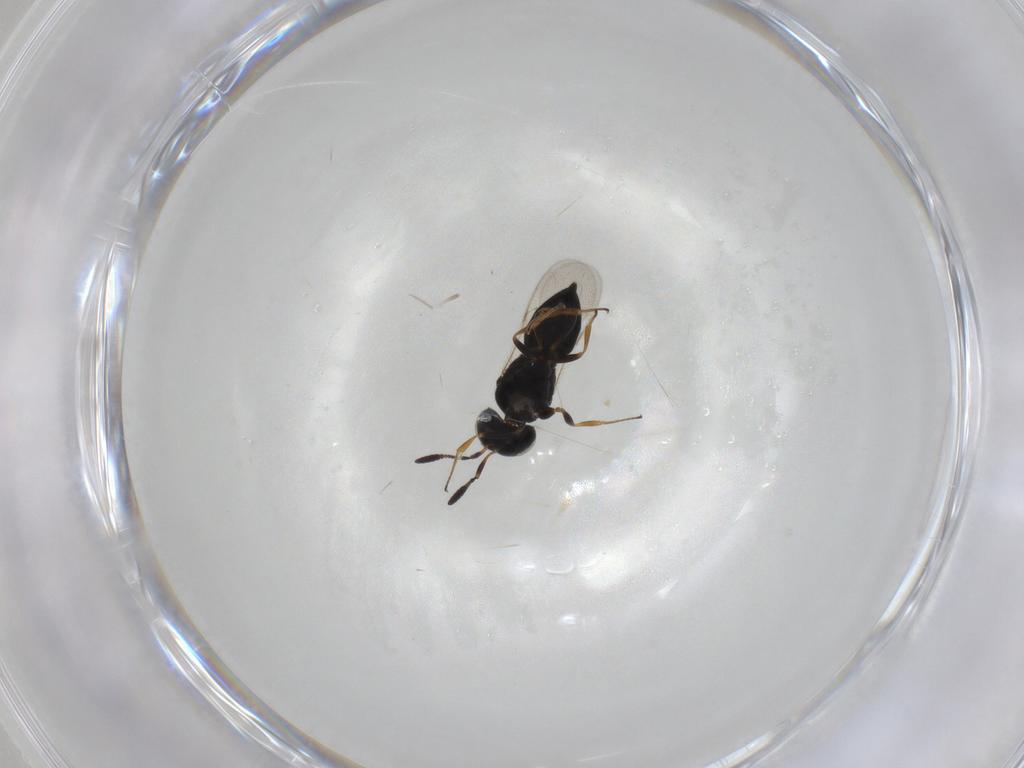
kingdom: Animalia
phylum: Arthropoda
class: Insecta
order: Hymenoptera
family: Scelionidae
